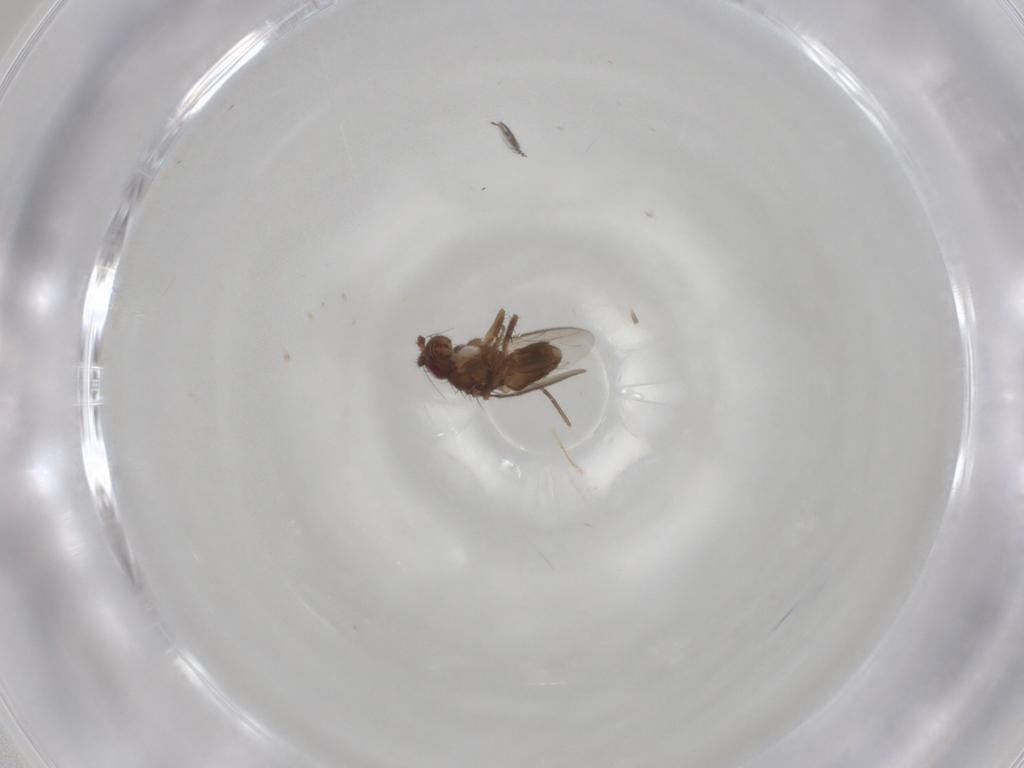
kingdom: Animalia
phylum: Arthropoda
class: Insecta
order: Diptera
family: Sphaeroceridae
